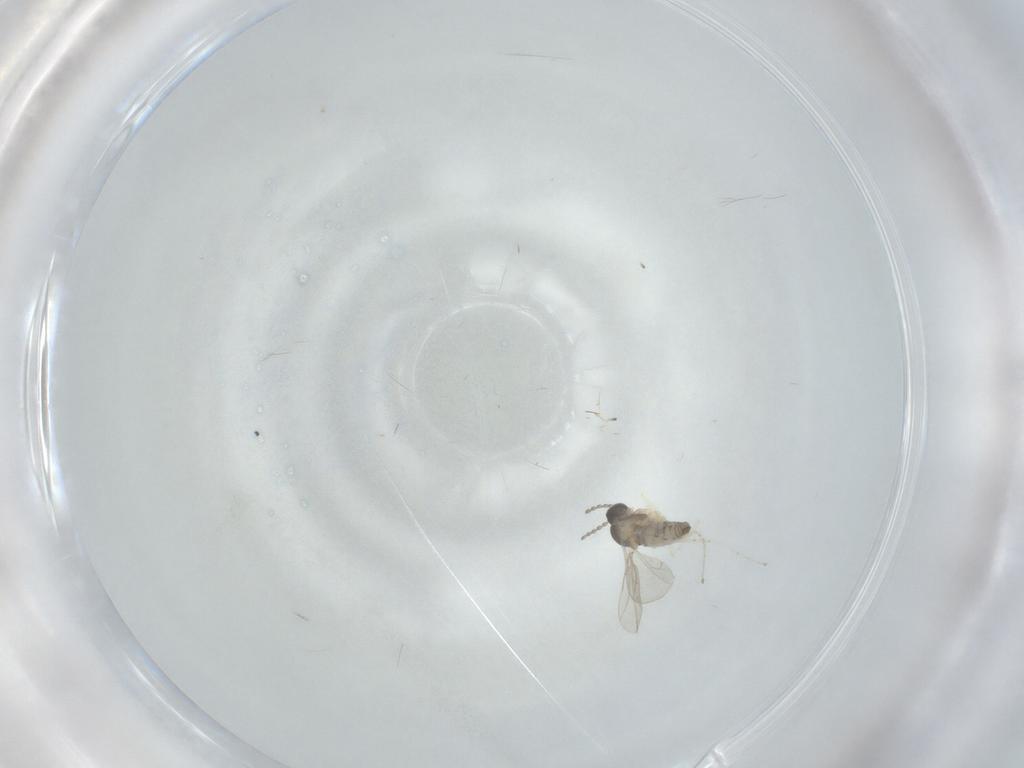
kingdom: Animalia
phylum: Arthropoda
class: Insecta
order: Diptera
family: Cecidomyiidae
